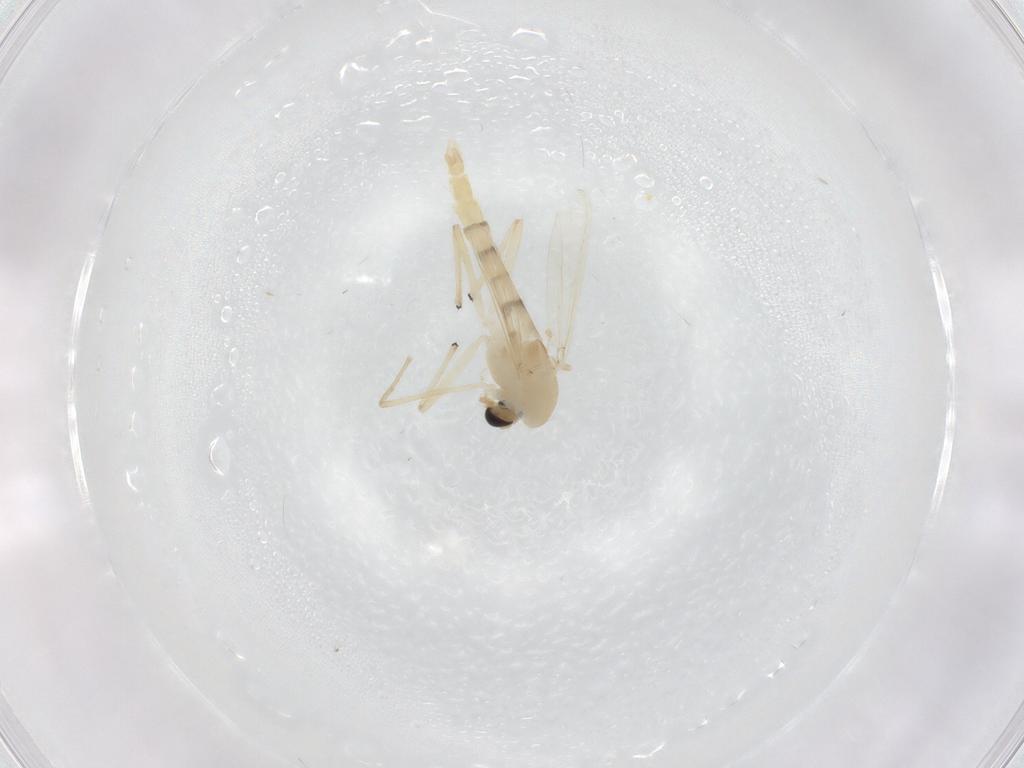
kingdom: Animalia
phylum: Arthropoda
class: Insecta
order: Diptera
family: Chironomidae
